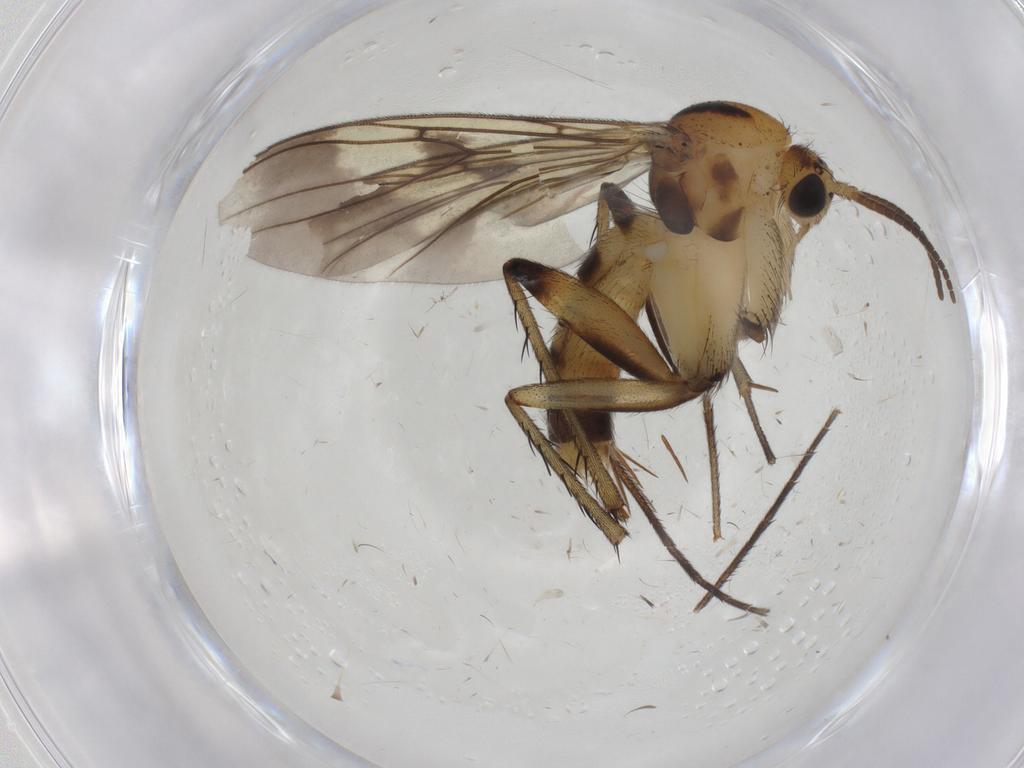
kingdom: Animalia
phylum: Arthropoda
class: Insecta
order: Diptera
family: Mycetophilidae
